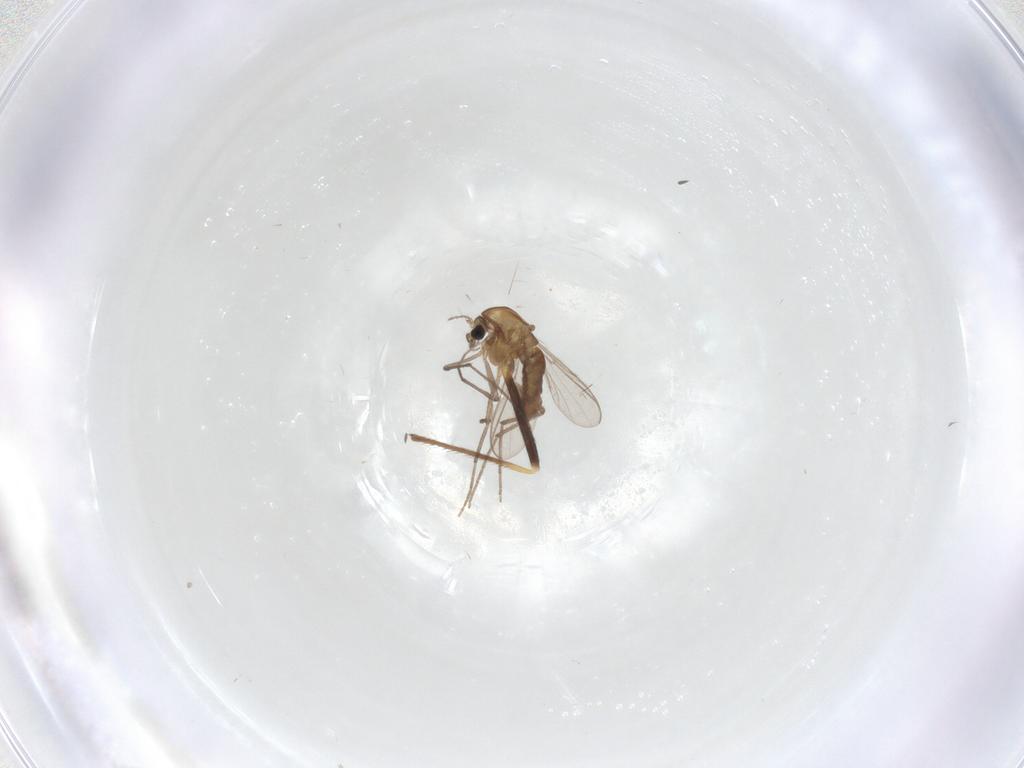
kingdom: Animalia
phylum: Arthropoda
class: Insecta
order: Diptera
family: Chironomidae
